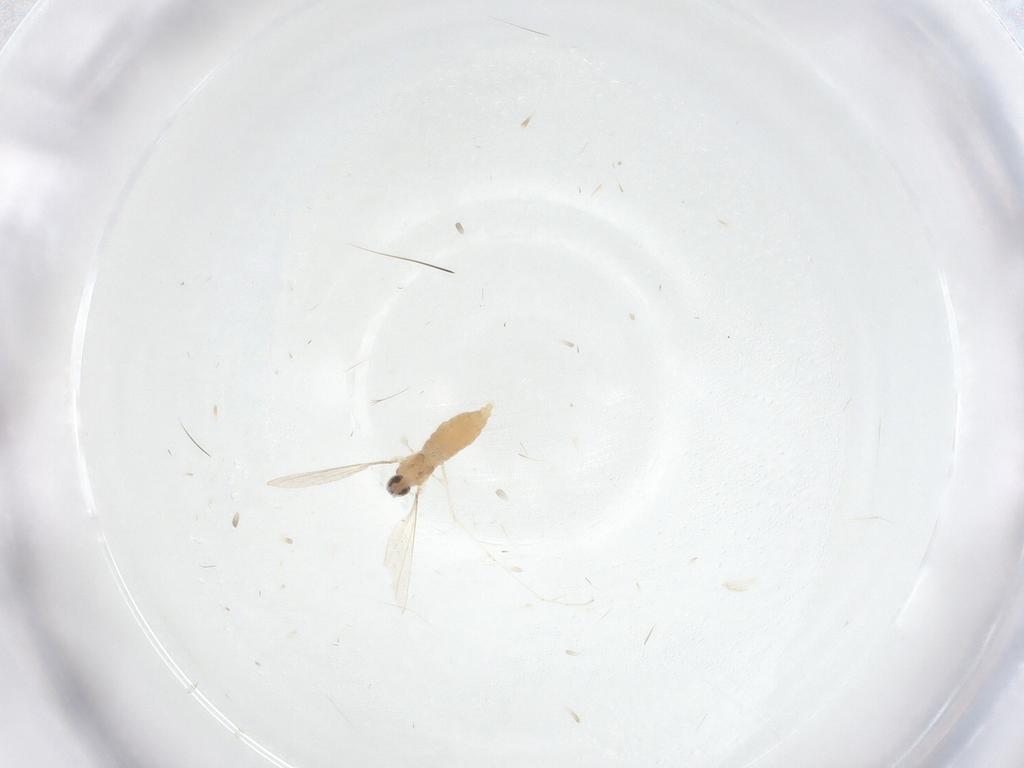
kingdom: Animalia
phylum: Arthropoda
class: Insecta
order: Diptera
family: Cecidomyiidae
